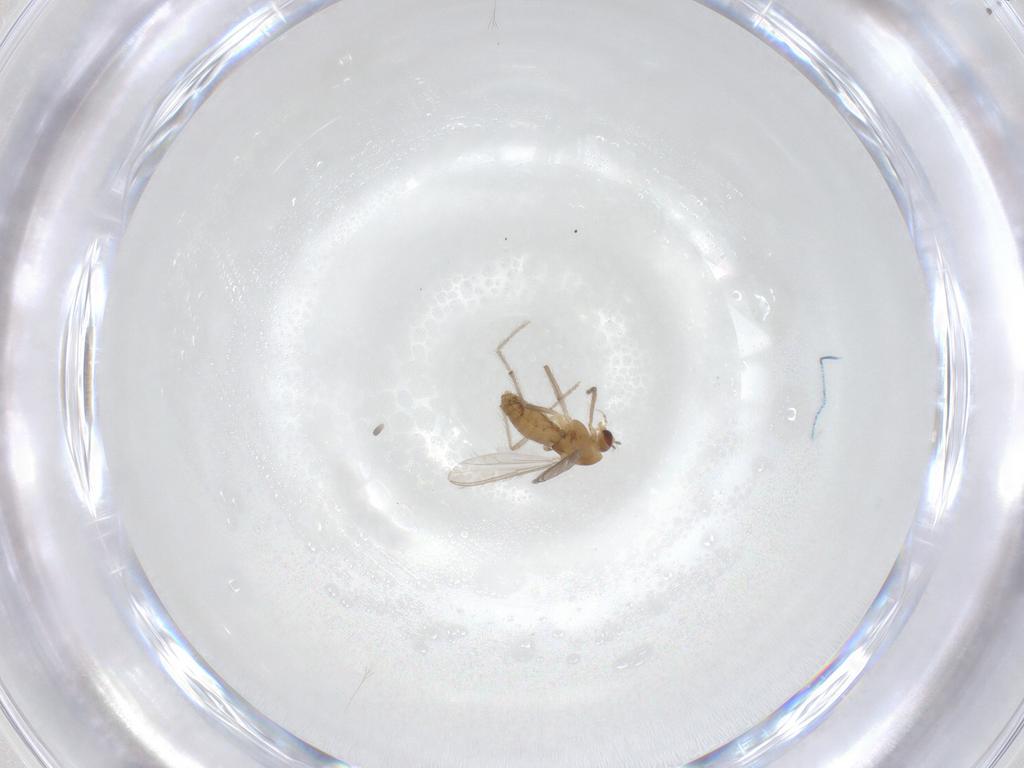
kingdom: Animalia
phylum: Arthropoda
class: Insecta
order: Diptera
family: Chironomidae
